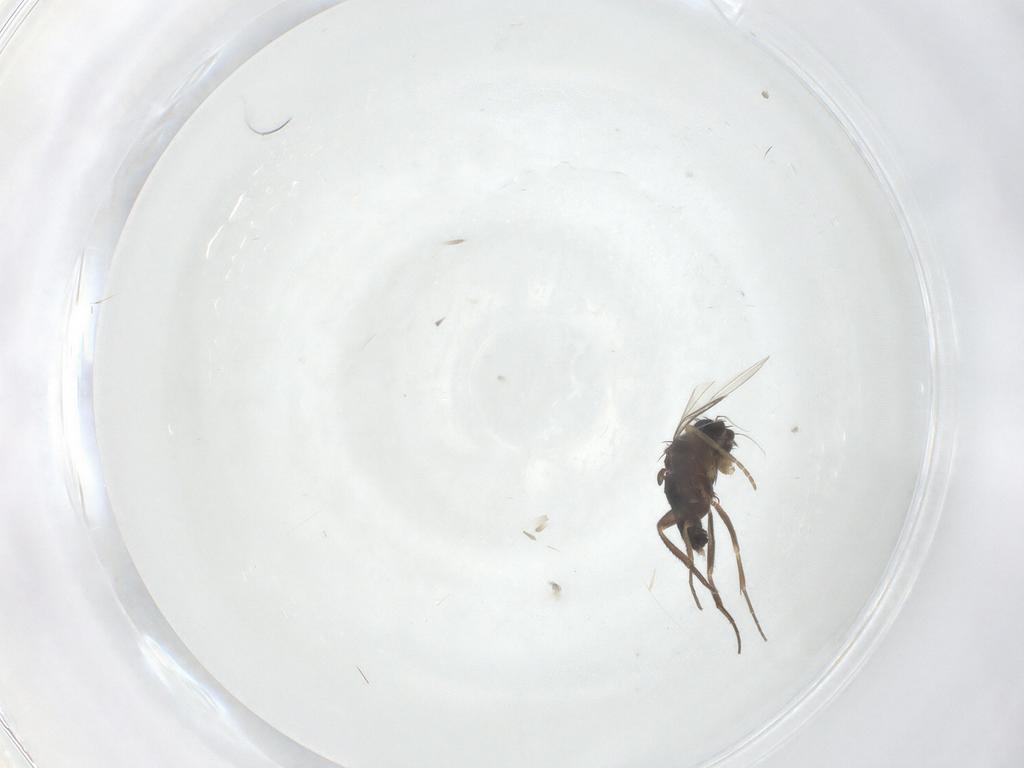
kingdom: Animalia
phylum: Arthropoda
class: Insecta
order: Diptera
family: Phoridae
